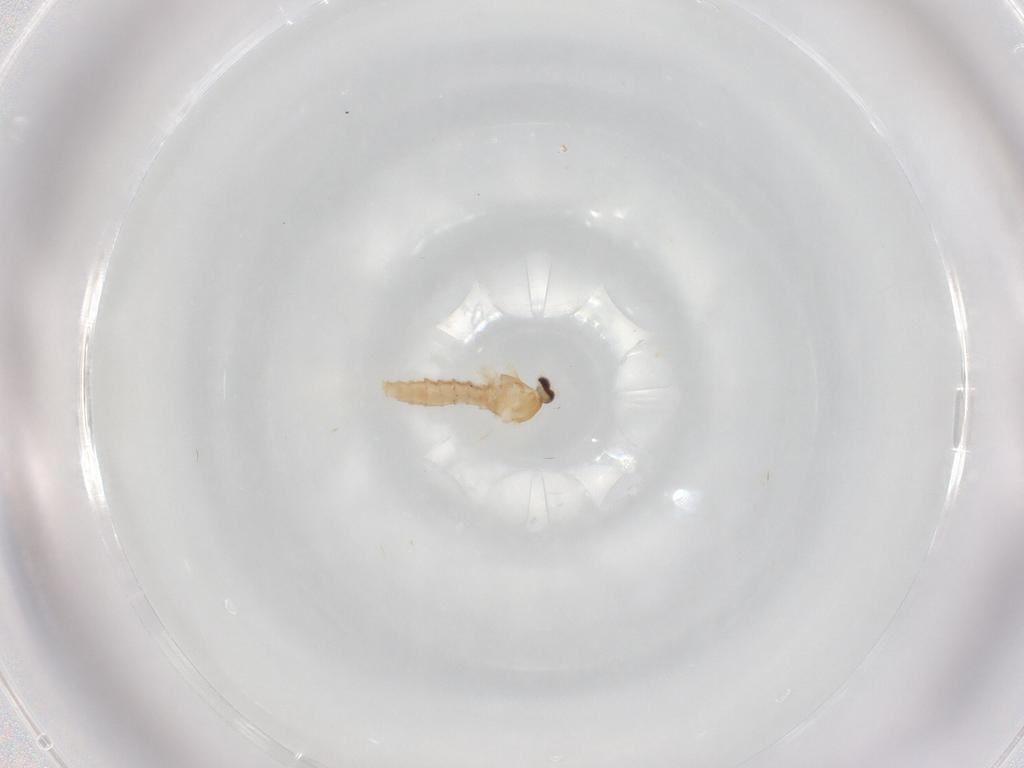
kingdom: Animalia
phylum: Arthropoda
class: Insecta
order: Diptera
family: Cecidomyiidae
